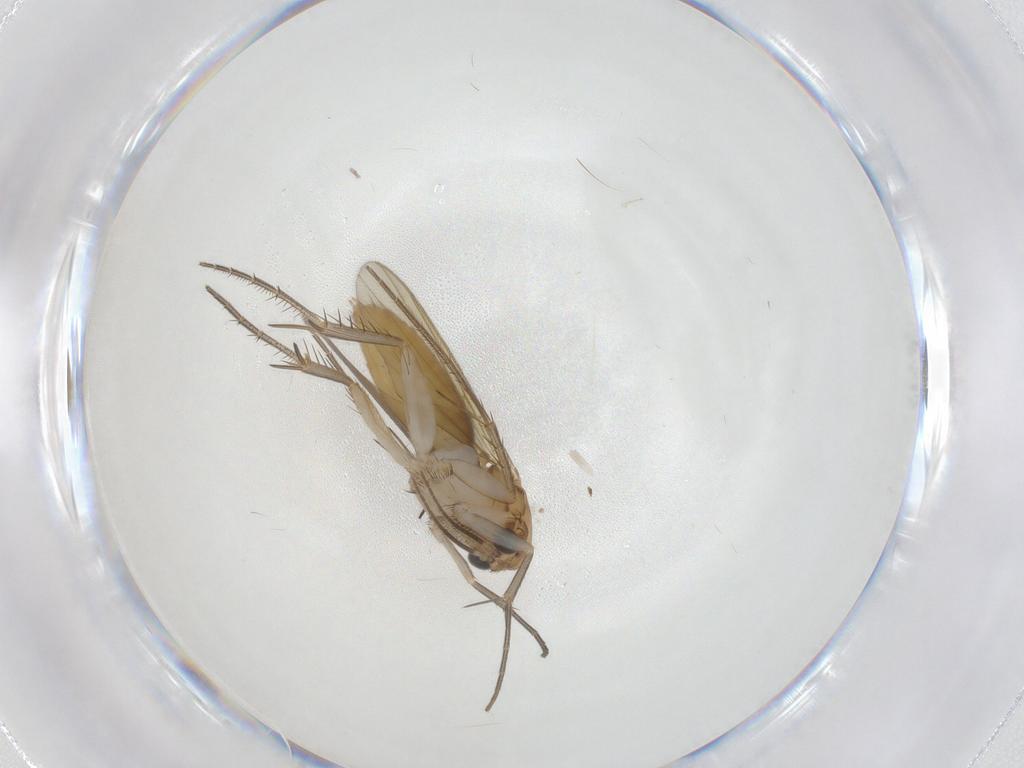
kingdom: Animalia
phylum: Arthropoda
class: Insecta
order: Diptera
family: Mycetophilidae
